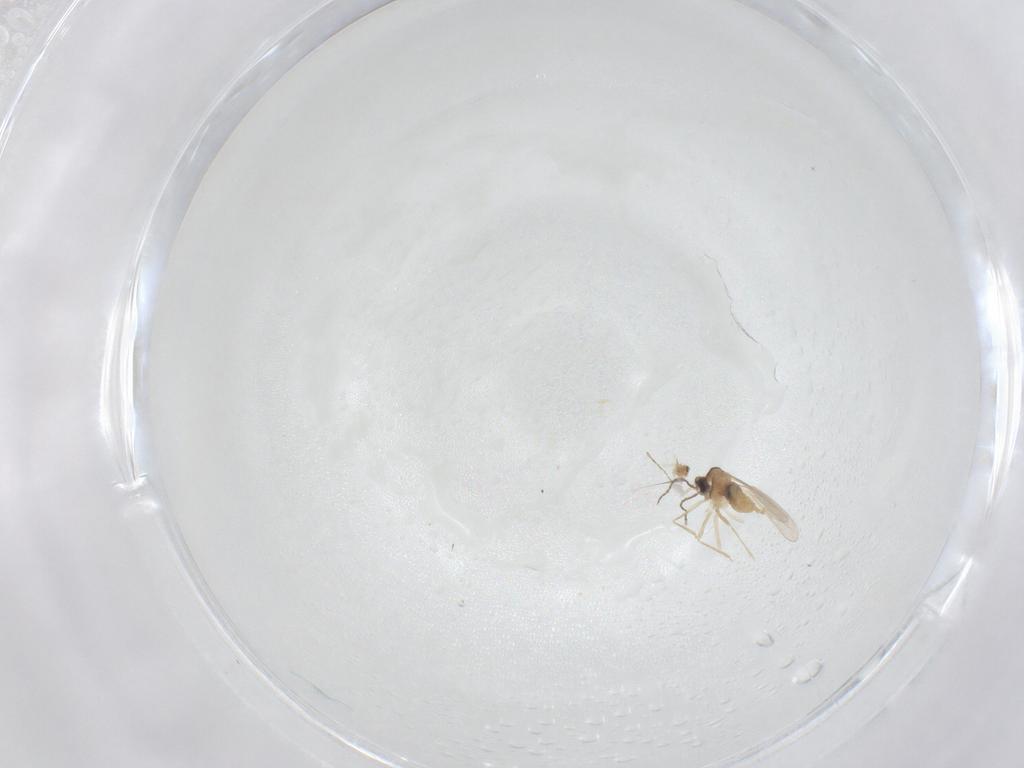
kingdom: Animalia
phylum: Arthropoda
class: Insecta
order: Diptera
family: Cecidomyiidae
